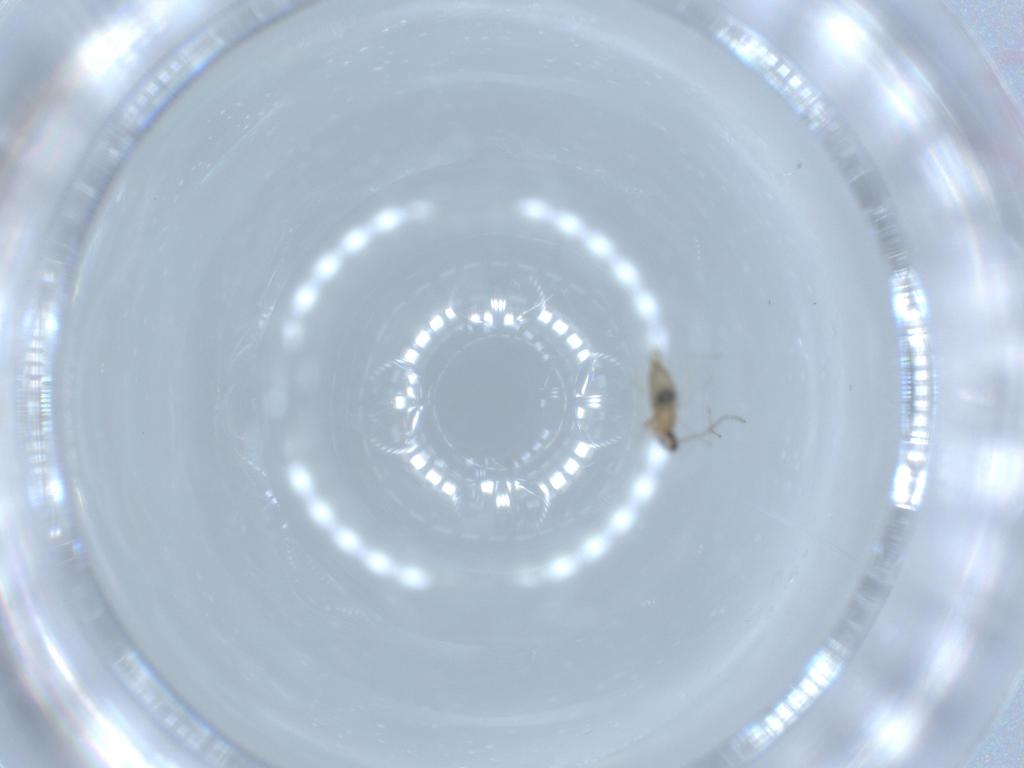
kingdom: Animalia
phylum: Arthropoda
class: Insecta
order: Diptera
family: Cecidomyiidae
